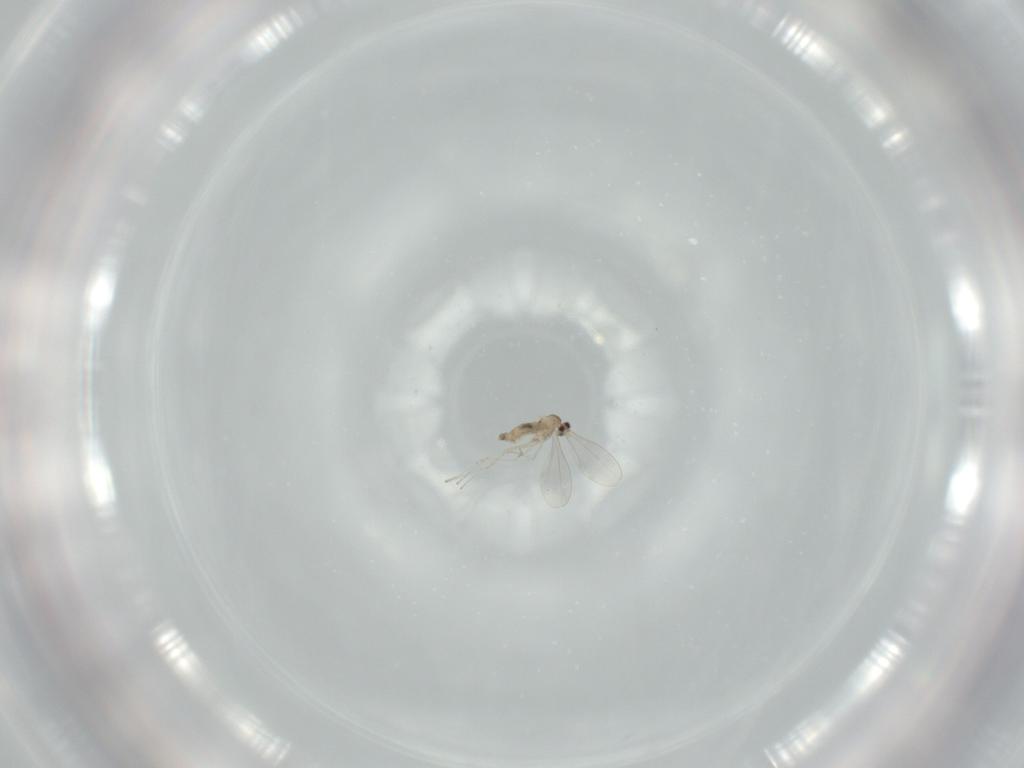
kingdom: Animalia
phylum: Arthropoda
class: Insecta
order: Diptera
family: Cecidomyiidae
